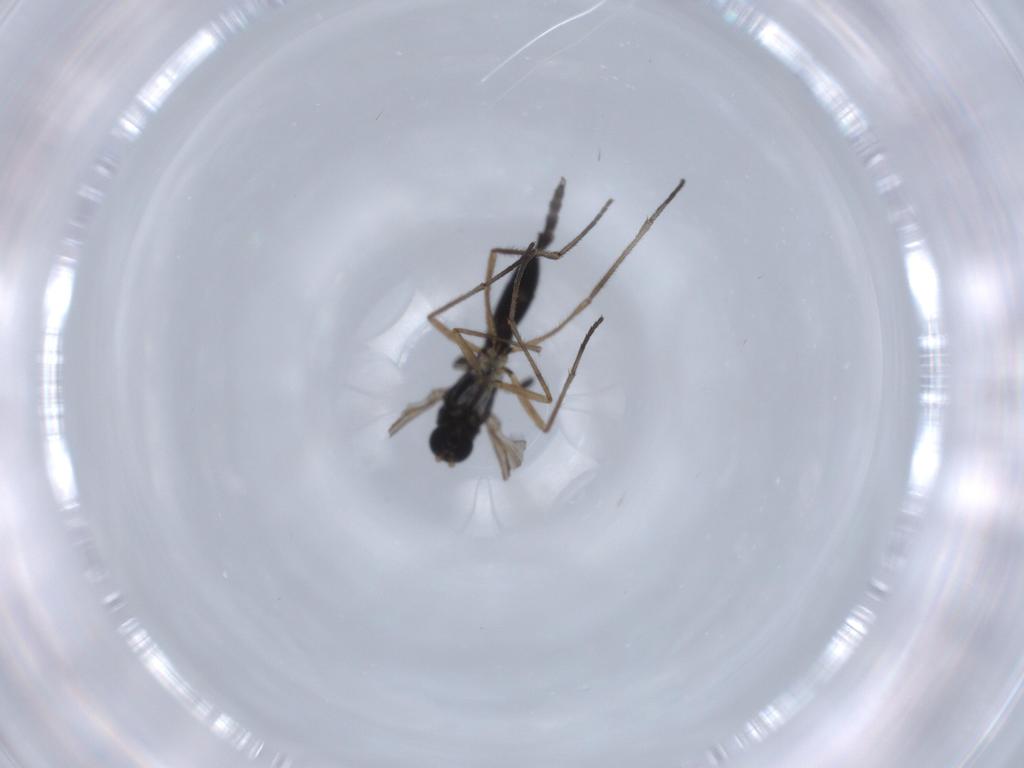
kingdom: Animalia
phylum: Arthropoda
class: Insecta
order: Diptera
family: Sciaridae
